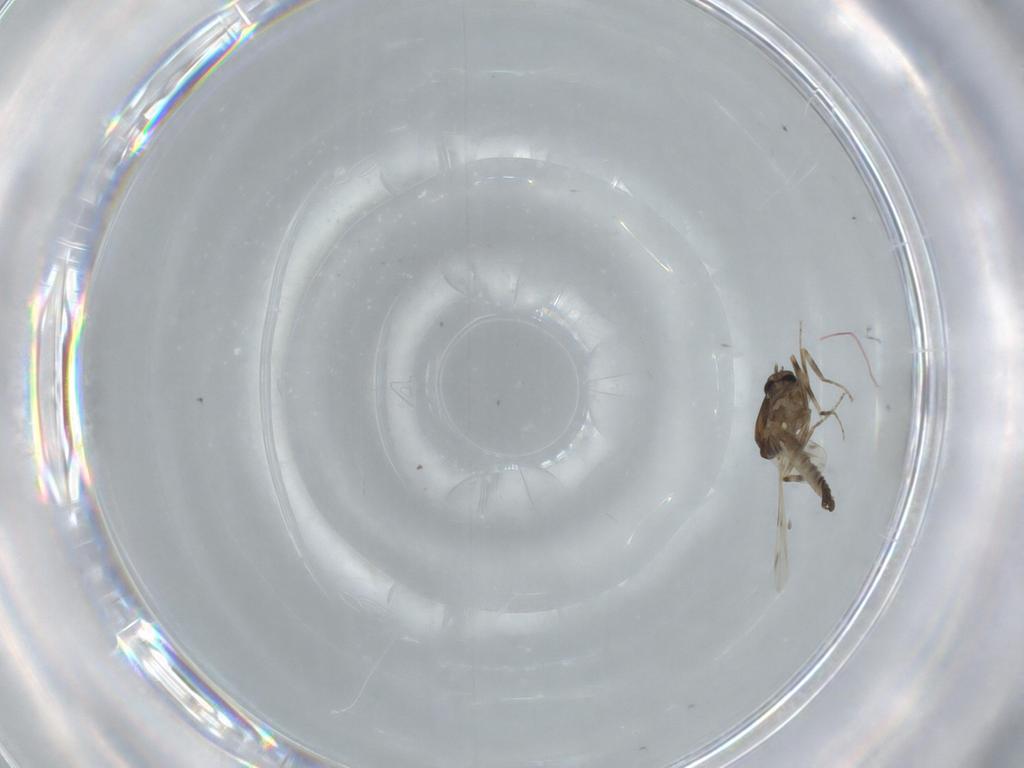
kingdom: Animalia
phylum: Arthropoda
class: Insecta
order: Diptera
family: Ceratopogonidae
